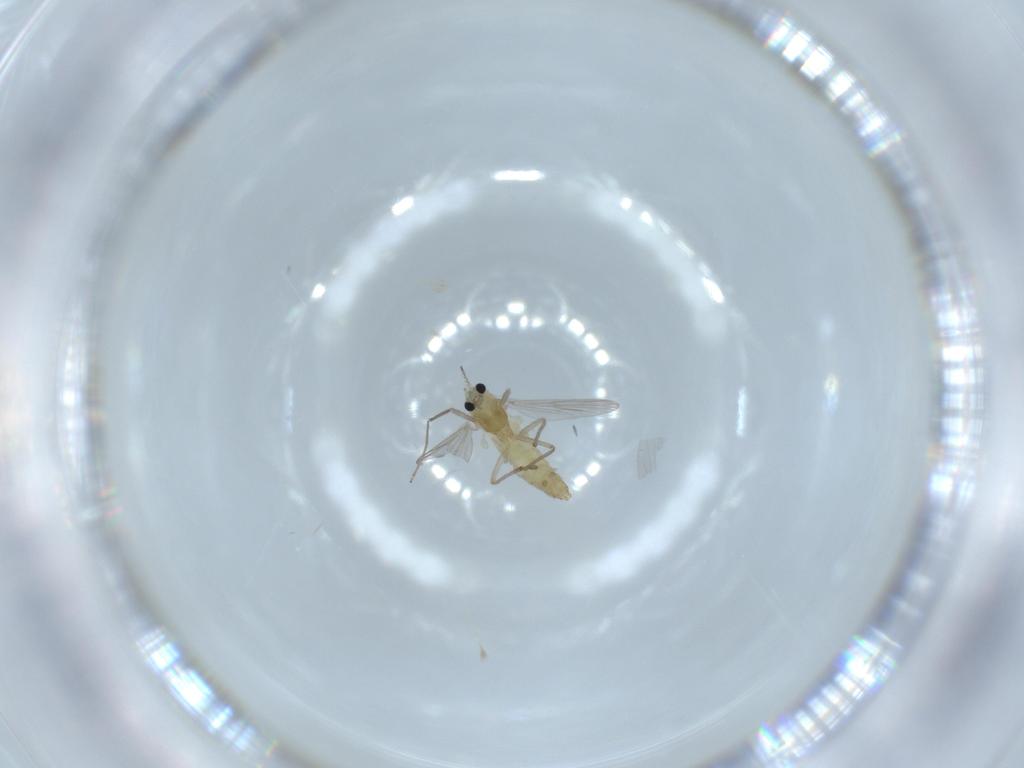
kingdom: Animalia
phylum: Arthropoda
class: Insecta
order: Diptera
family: Chironomidae
